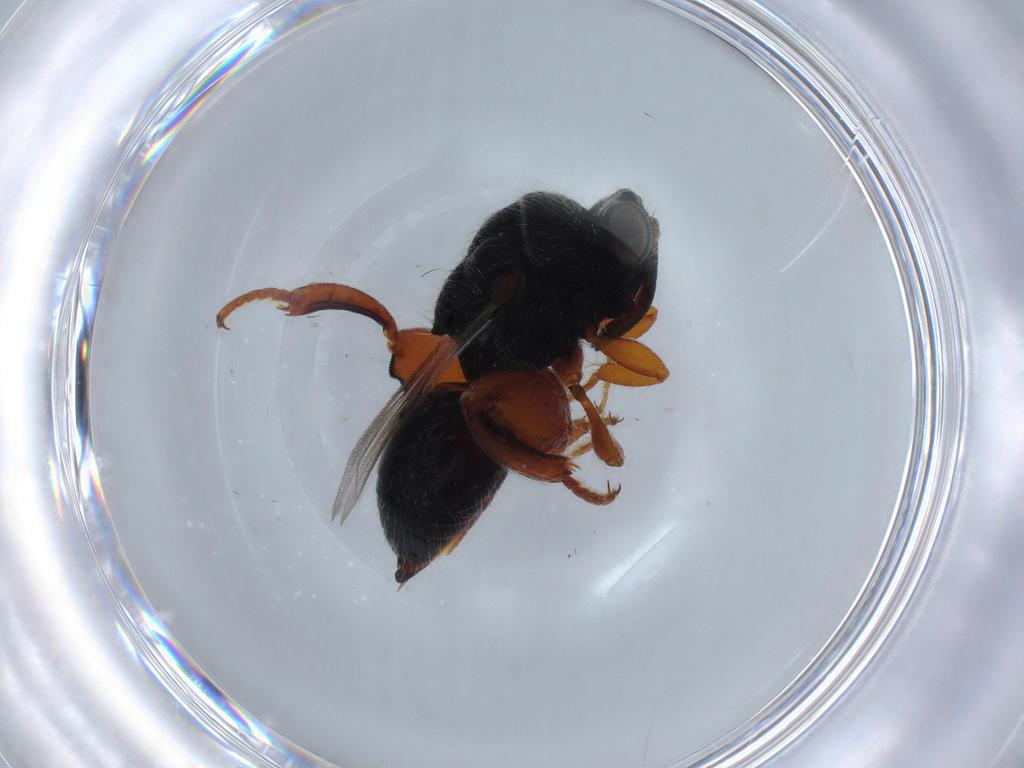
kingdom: Animalia
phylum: Arthropoda
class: Insecta
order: Hymenoptera
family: Chalcididae
